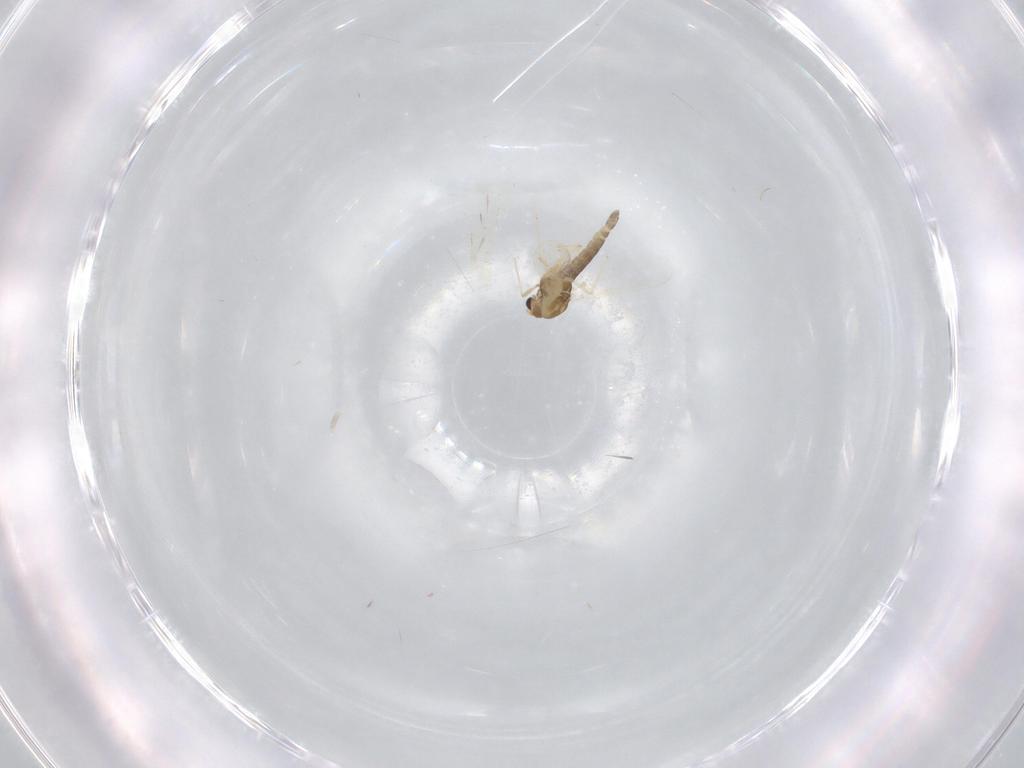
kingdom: Animalia
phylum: Arthropoda
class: Insecta
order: Diptera
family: Chironomidae
